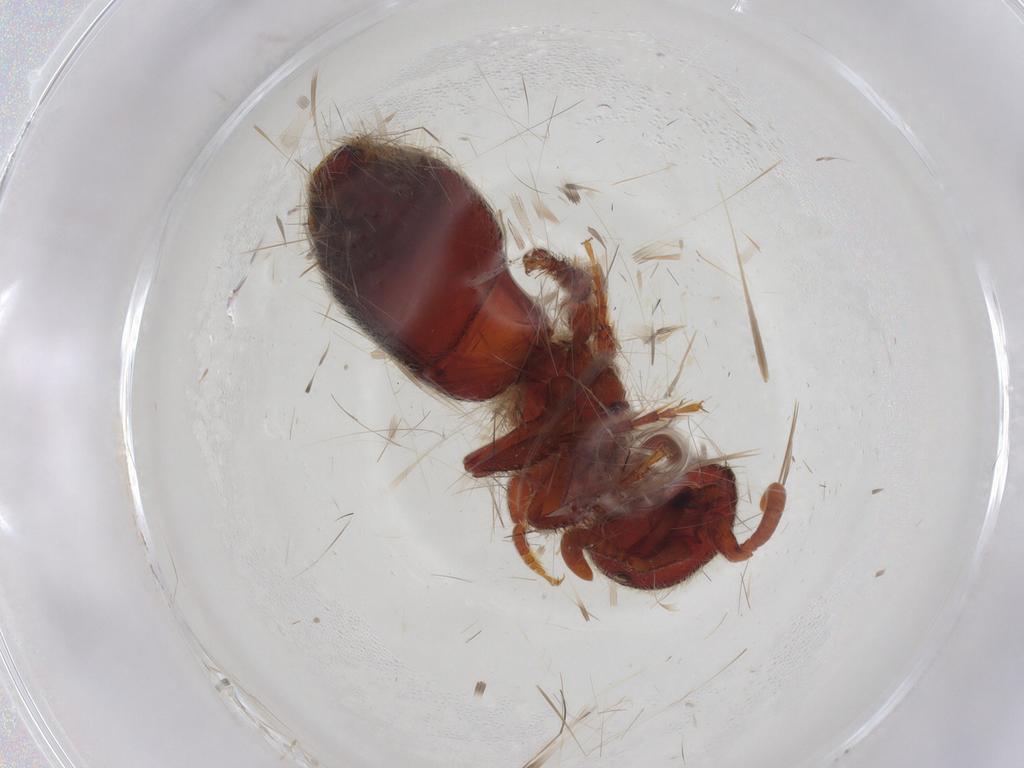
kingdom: Animalia
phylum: Arthropoda
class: Insecta
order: Hymenoptera
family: Mutillidae
